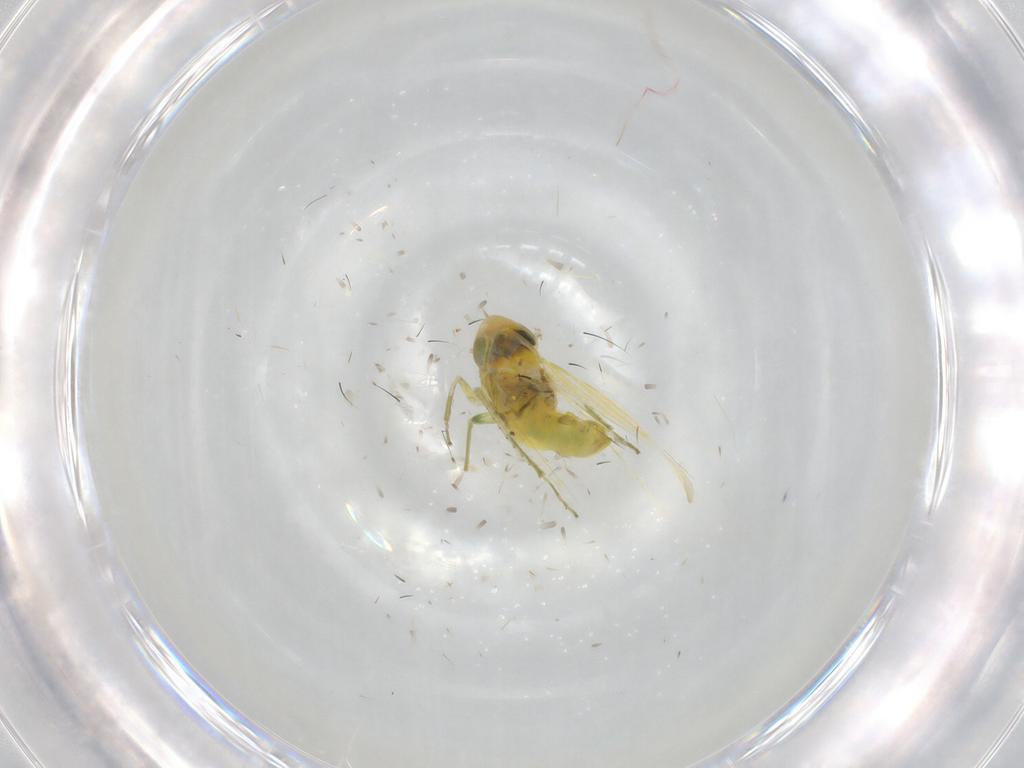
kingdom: Animalia
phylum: Arthropoda
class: Insecta
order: Hemiptera
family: Cicadellidae
